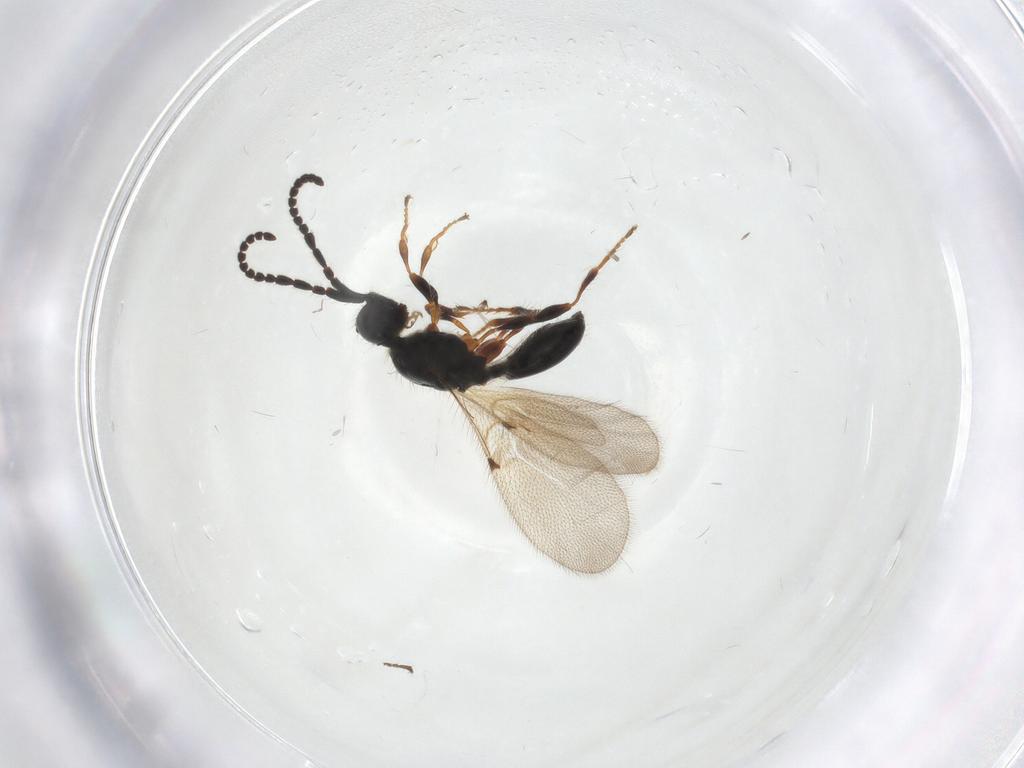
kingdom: Animalia
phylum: Arthropoda
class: Insecta
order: Hymenoptera
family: Diapriidae
